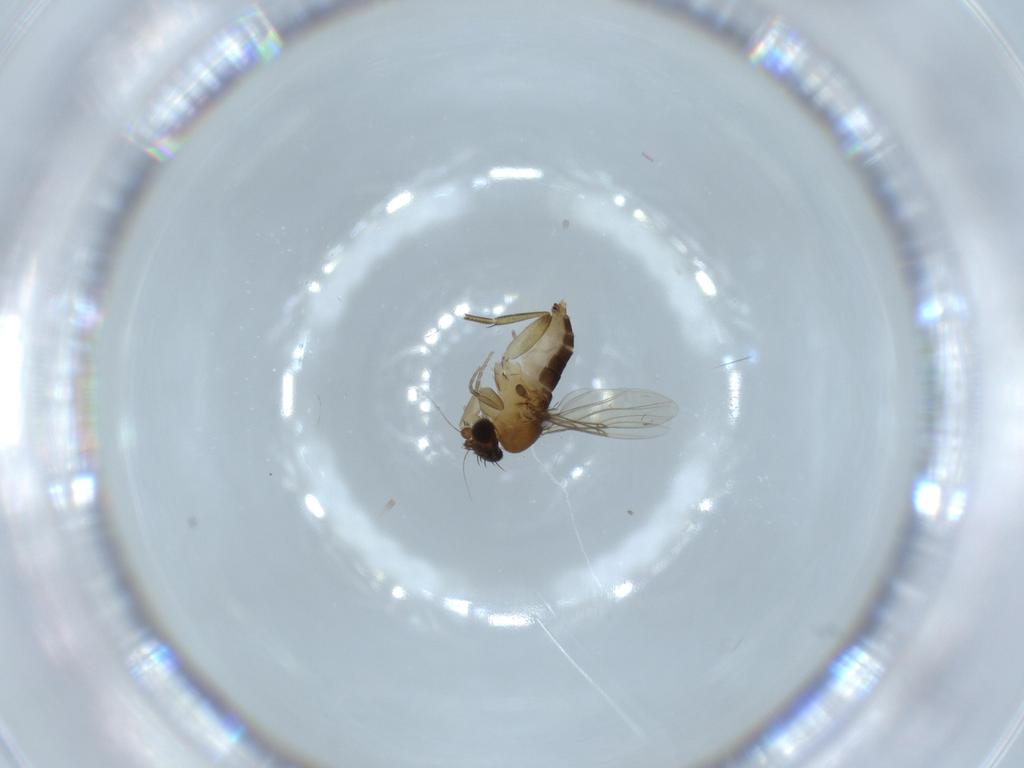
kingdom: Animalia
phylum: Arthropoda
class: Insecta
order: Diptera
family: Phoridae
